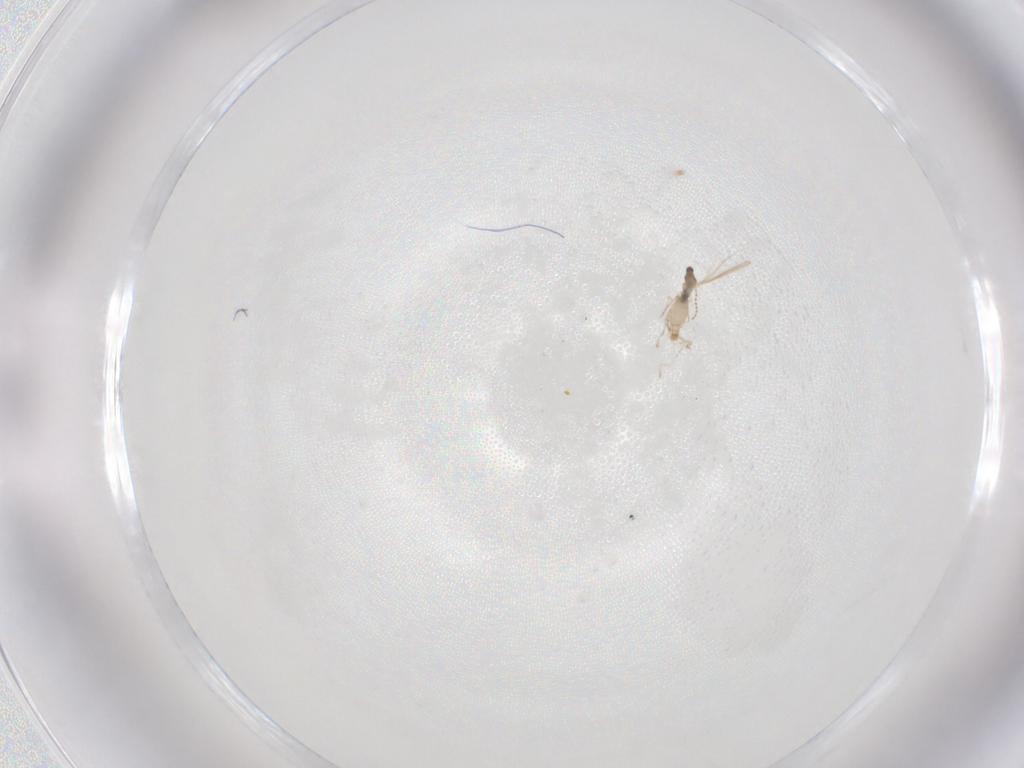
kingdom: Animalia
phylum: Arthropoda
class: Insecta
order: Diptera
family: Cecidomyiidae
